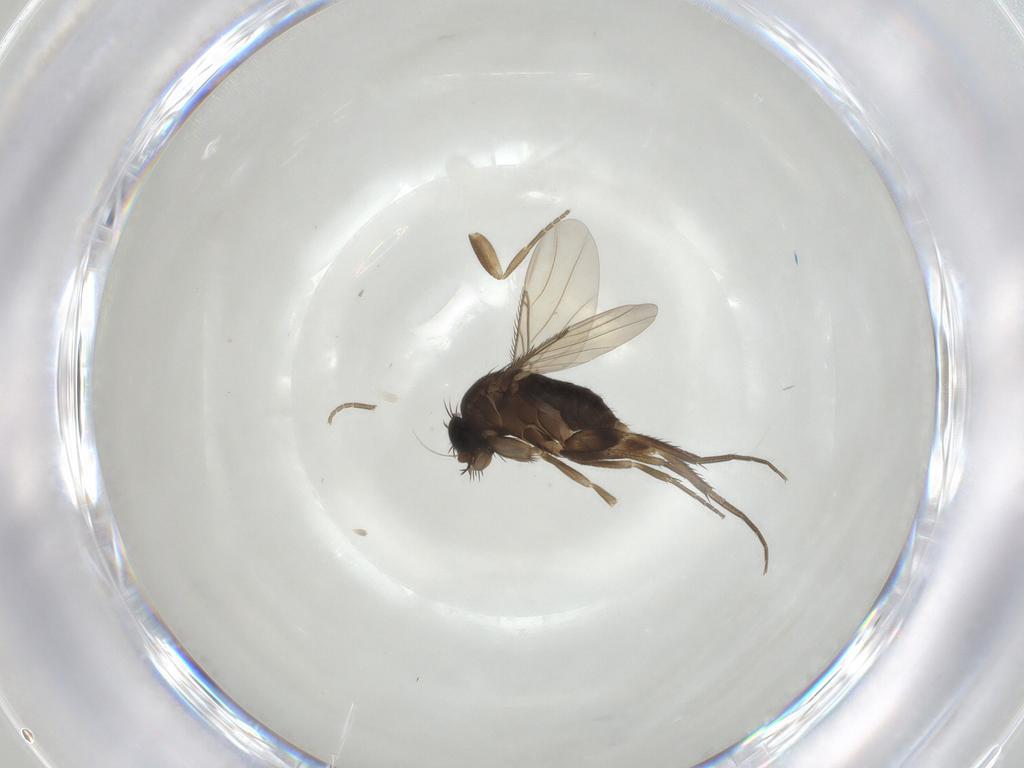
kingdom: Animalia
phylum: Arthropoda
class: Insecta
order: Diptera
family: Phoridae
